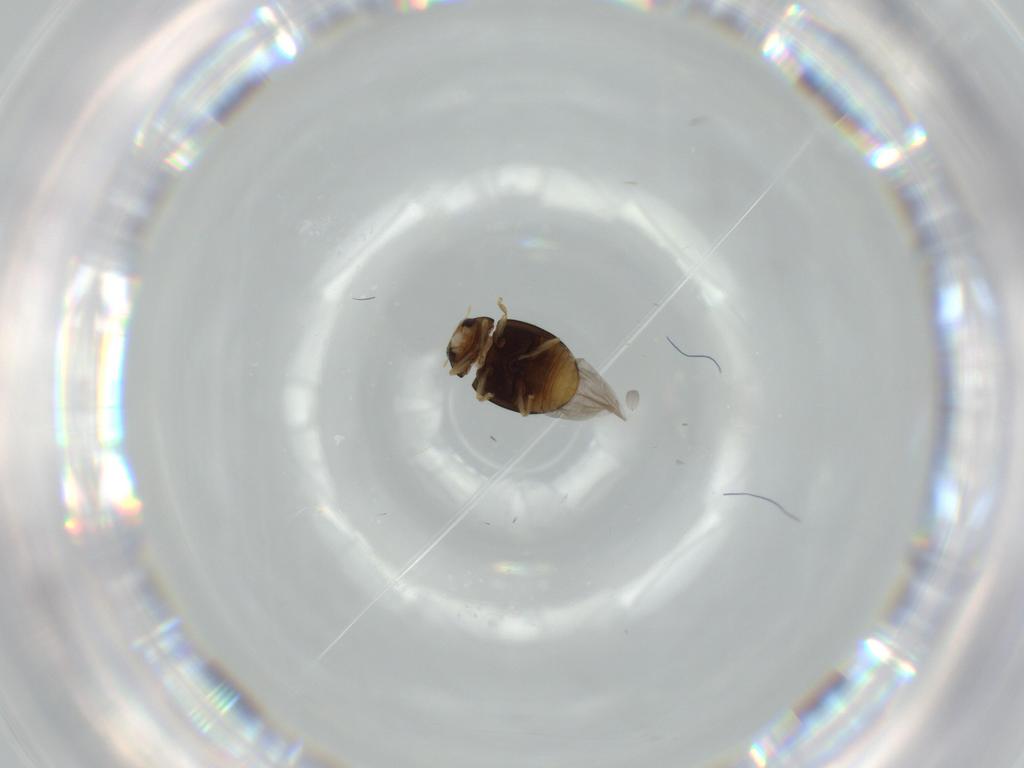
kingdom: Animalia
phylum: Arthropoda
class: Insecta
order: Coleoptera
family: Coccinellidae
